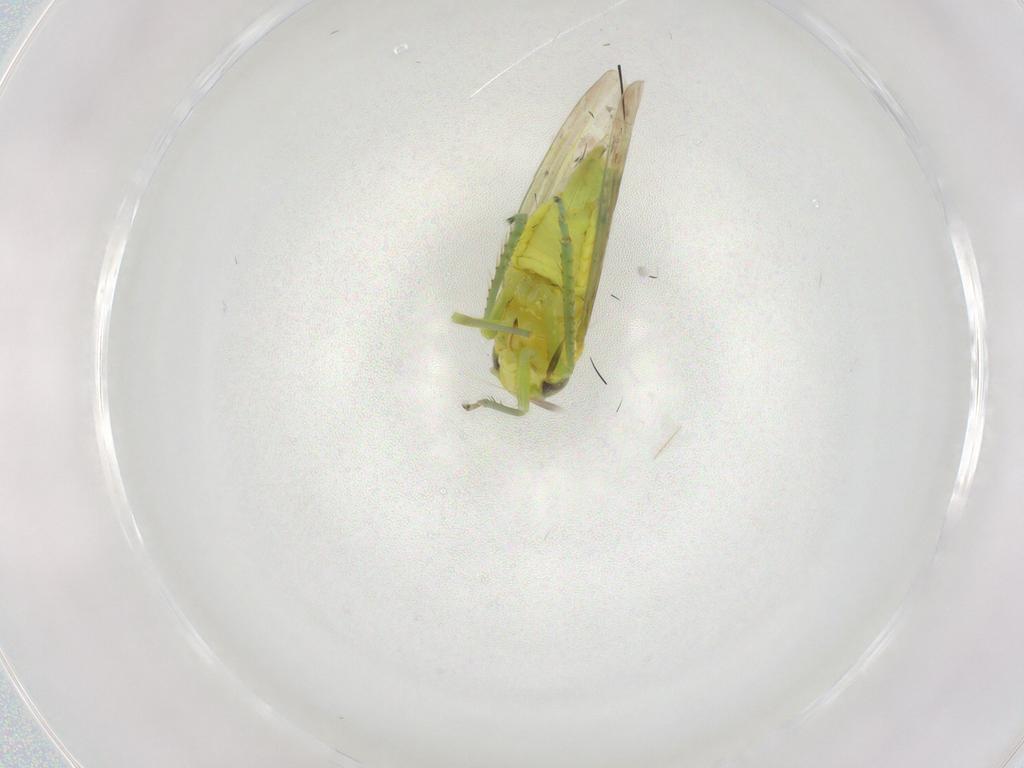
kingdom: Animalia
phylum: Arthropoda
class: Insecta
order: Hemiptera
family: Cicadellidae
